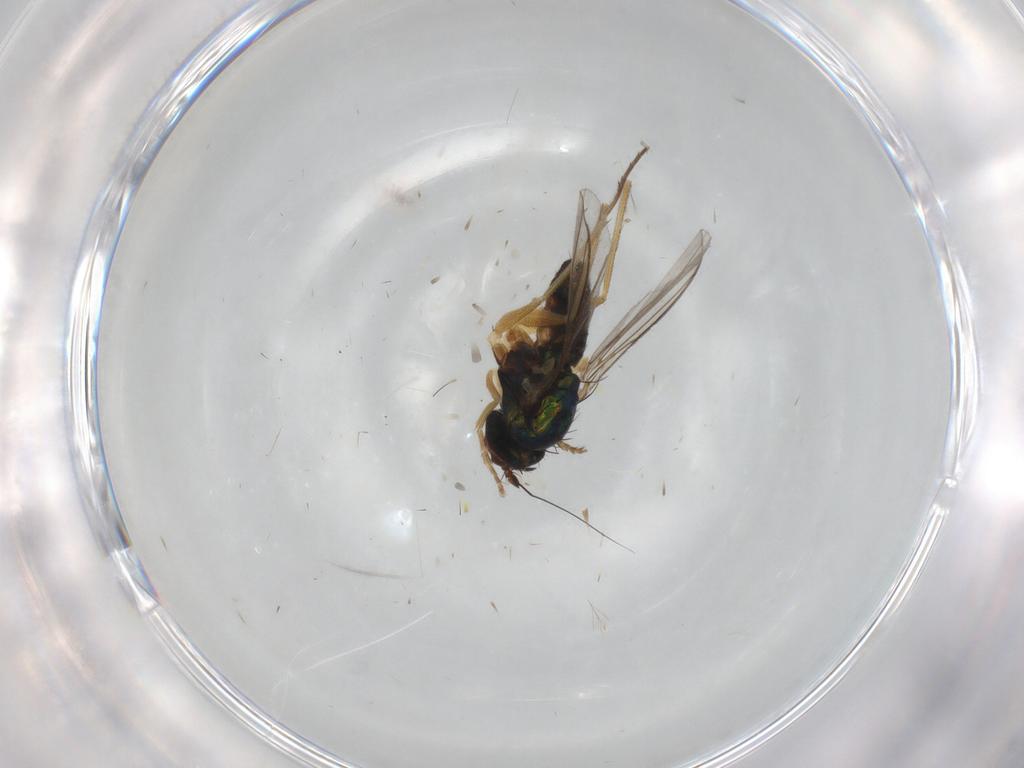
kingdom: Animalia
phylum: Arthropoda
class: Insecta
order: Diptera
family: Dolichopodidae
